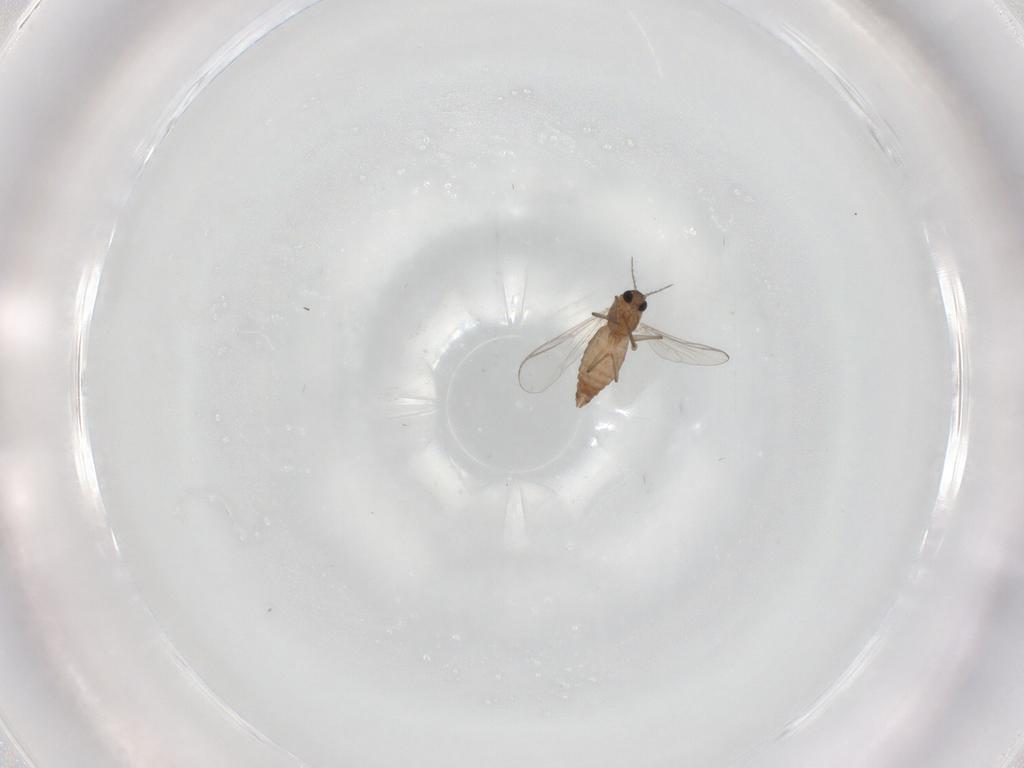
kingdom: Animalia
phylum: Arthropoda
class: Insecta
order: Diptera
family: Chironomidae
